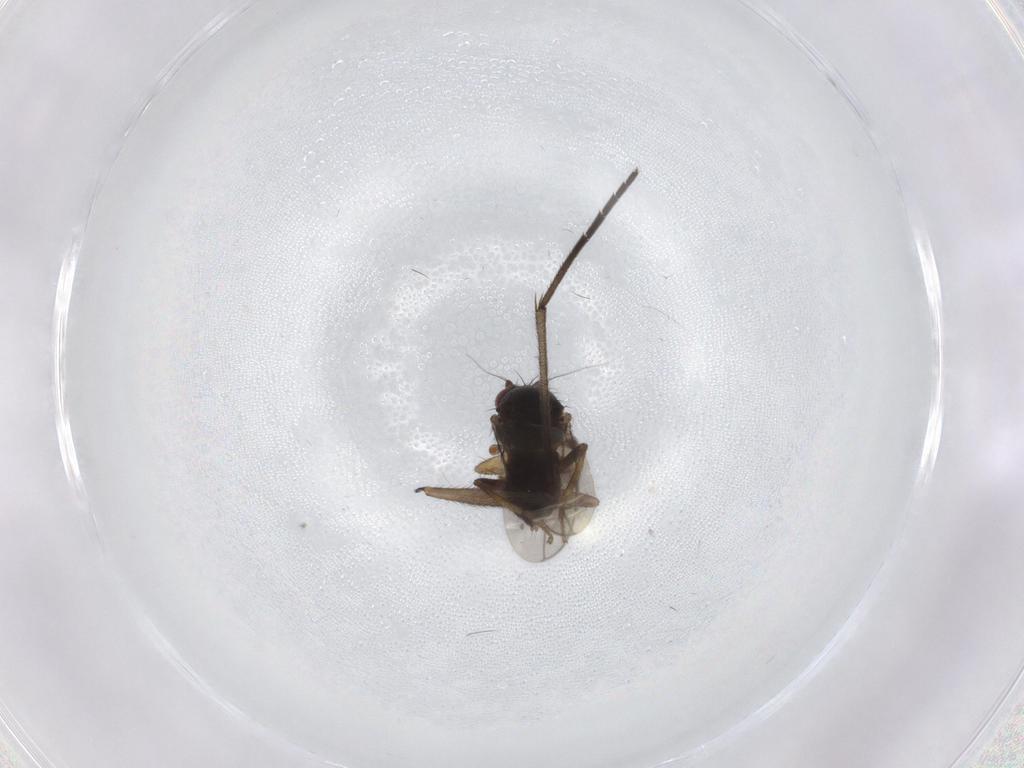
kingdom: Animalia
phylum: Arthropoda
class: Insecta
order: Diptera
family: Sphaeroceridae
